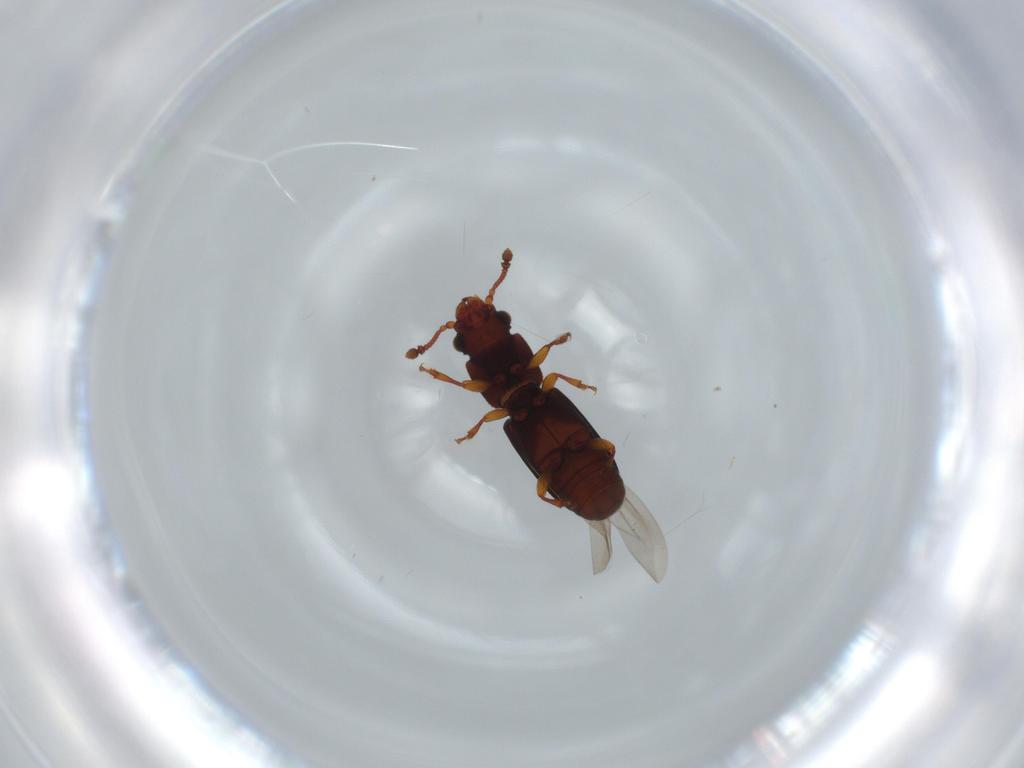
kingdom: Animalia
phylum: Arthropoda
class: Insecta
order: Coleoptera
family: Monotomidae
